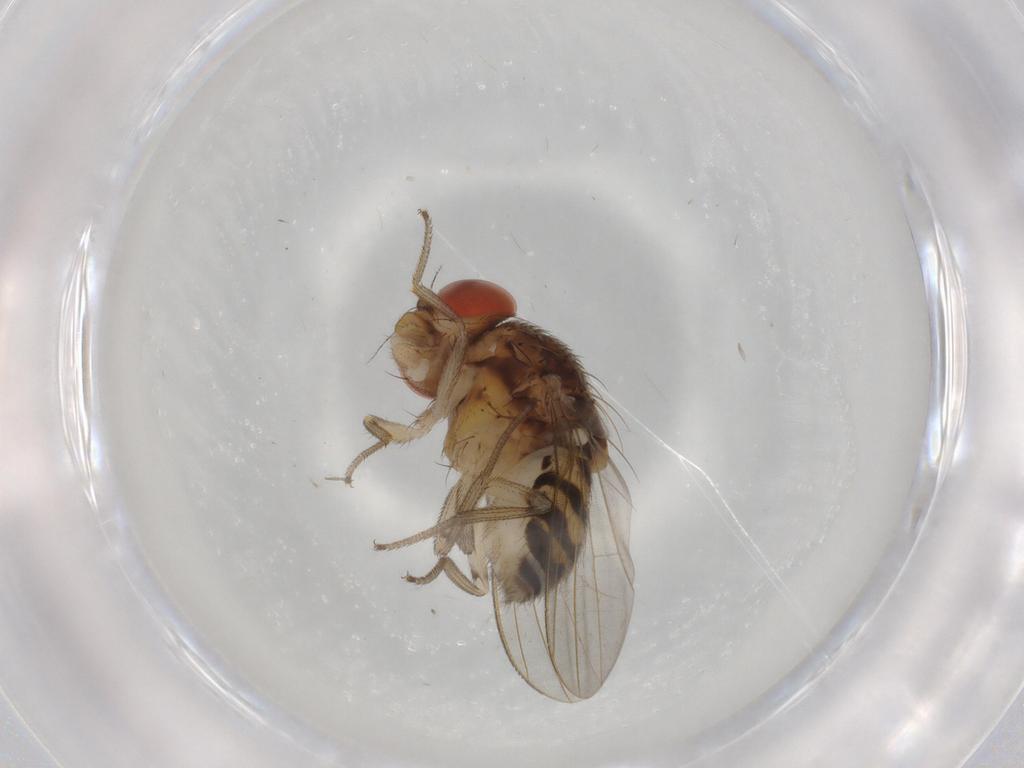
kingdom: Animalia
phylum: Arthropoda
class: Insecta
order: Diptera
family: Drosophilidae
